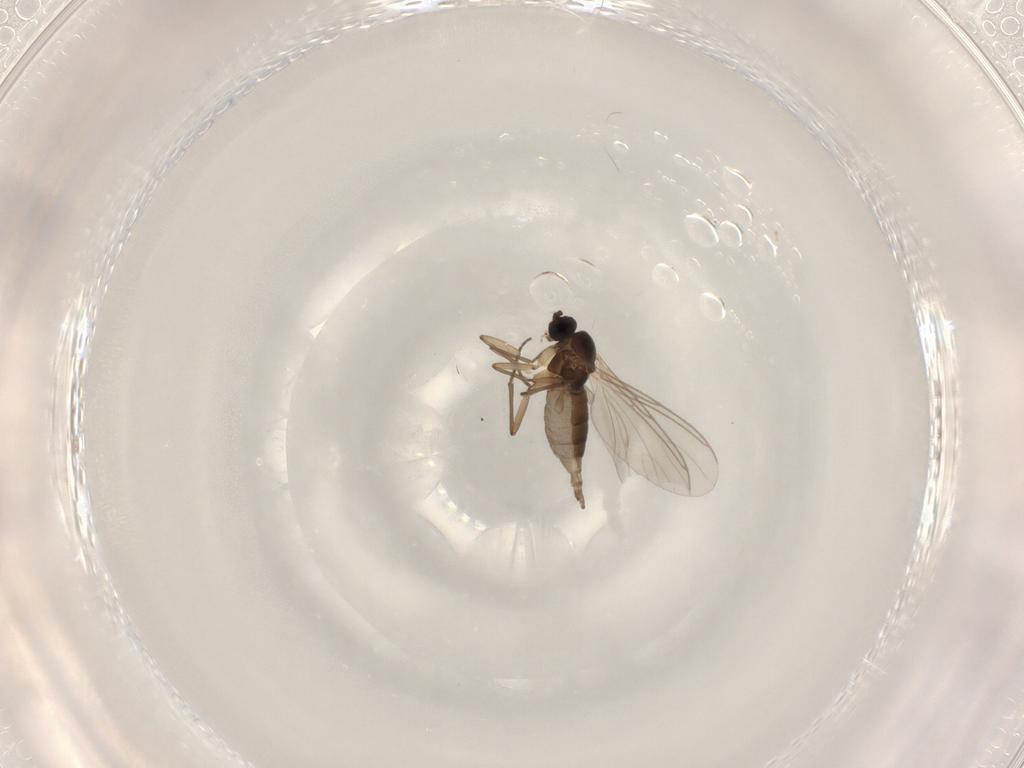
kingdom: Animalia
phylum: Arthropoda
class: Insecta
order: Diptera
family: Sciaridae
